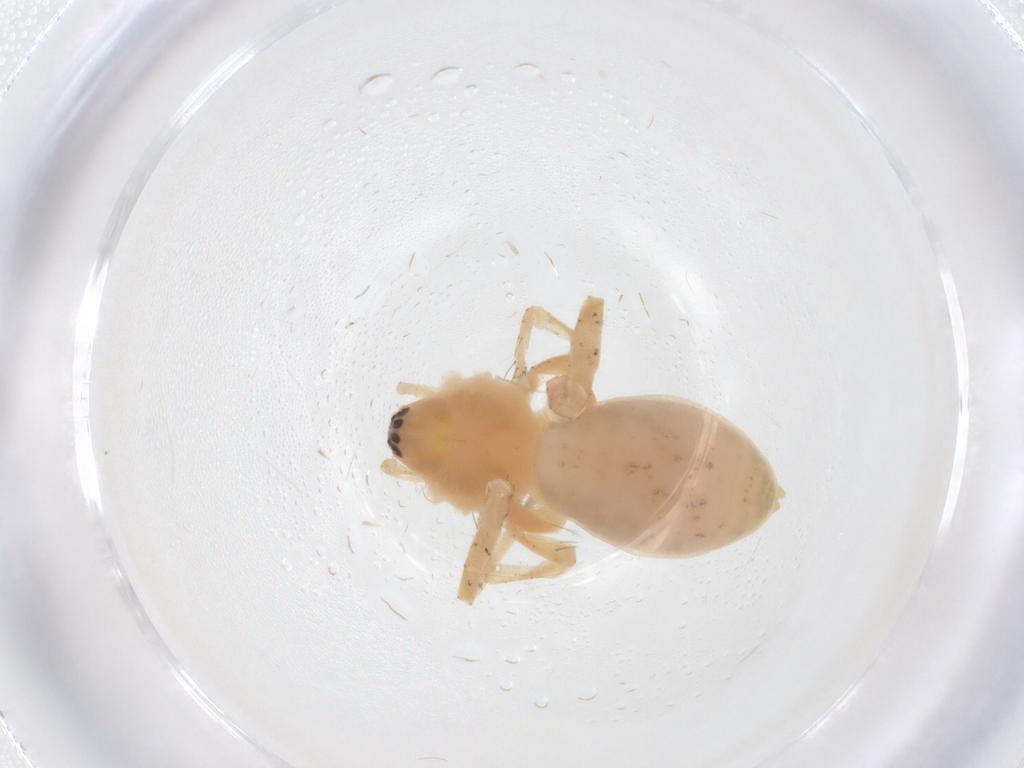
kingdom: Animalia
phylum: Arthropoda
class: Arachnida
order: Araneae
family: Anyphaenidae
